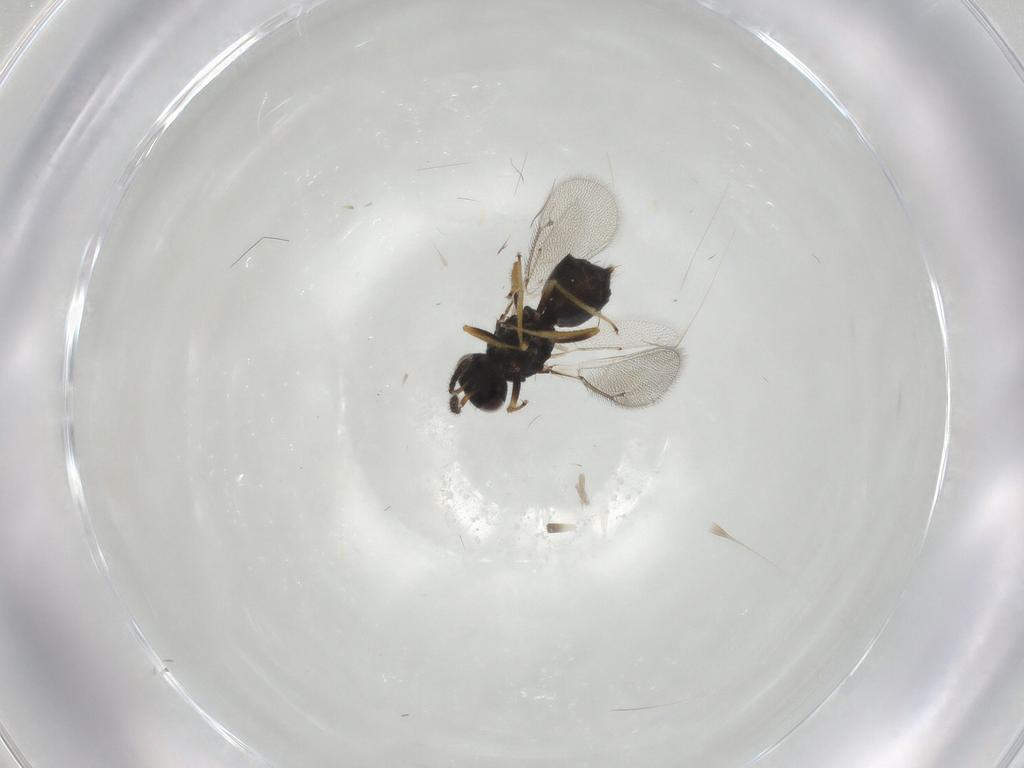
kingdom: Animalia
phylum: Arthropoda
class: Insecta
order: Hymenoptera
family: Eulophidae
